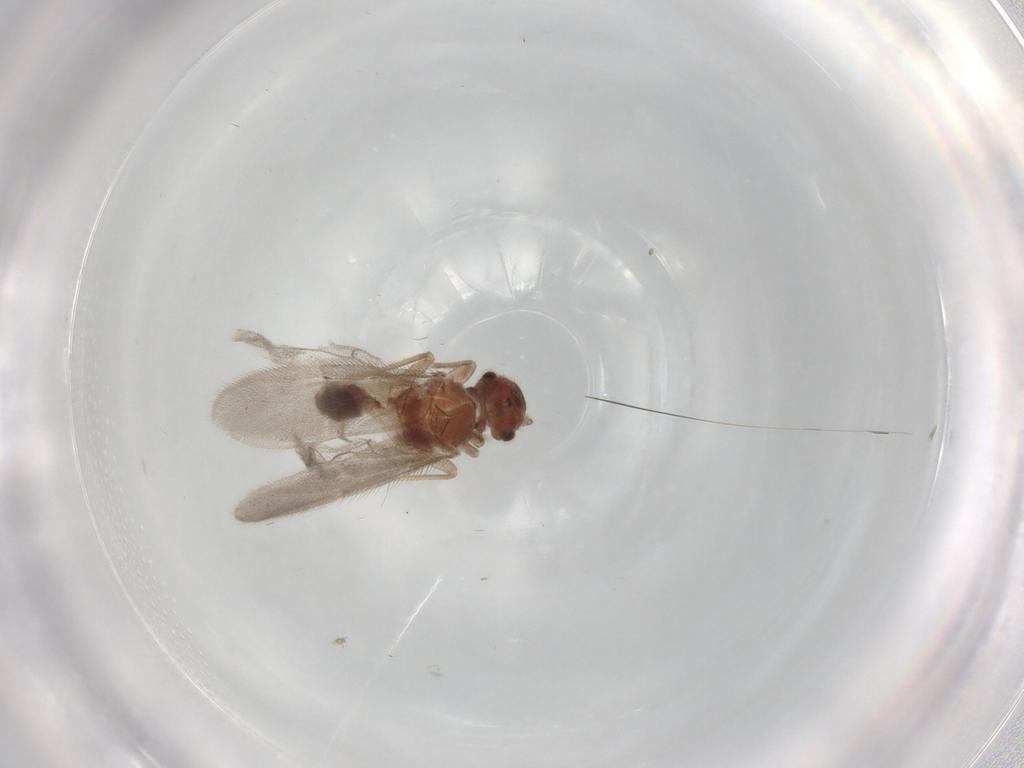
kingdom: Animalia
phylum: Arthropoda
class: Insecta
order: Psocodea
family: Archipsocidae
